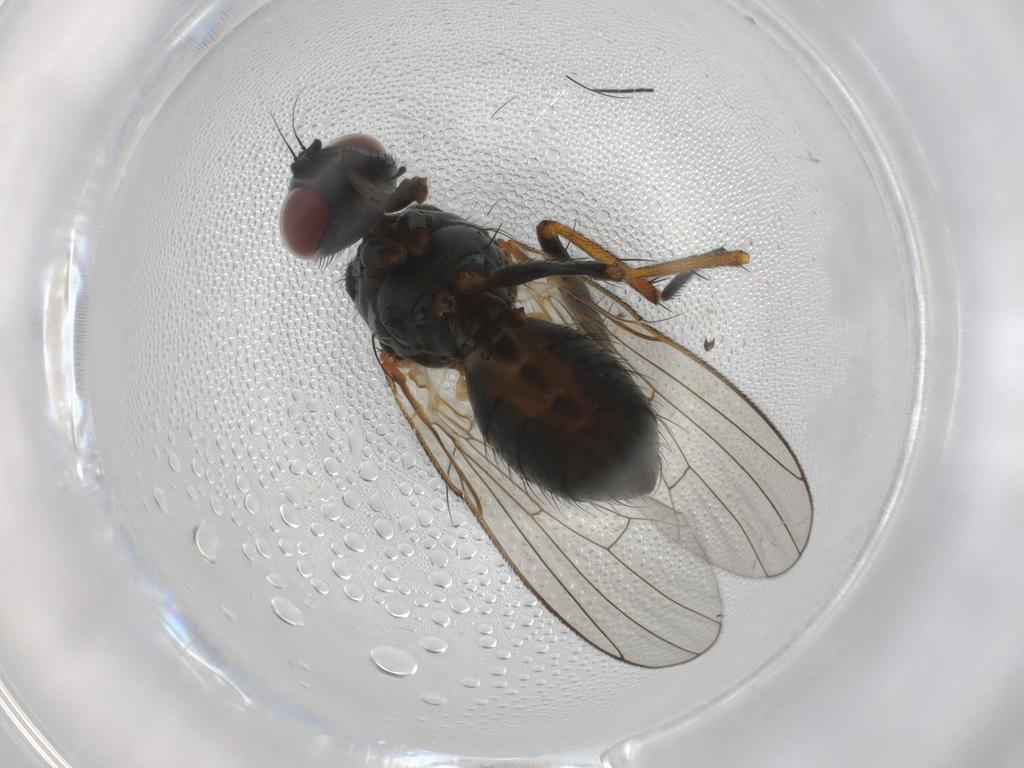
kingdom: Animalia
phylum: Arthropoda
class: Insecta
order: Diptera
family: Muscidae
